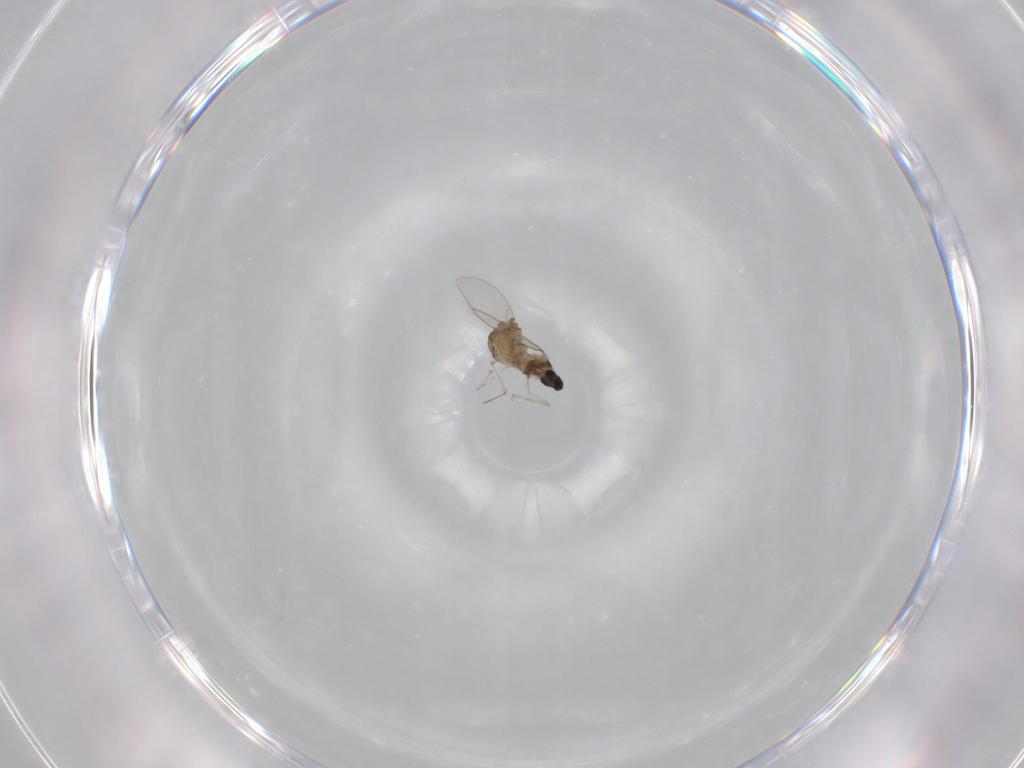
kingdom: Animalia
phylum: Arthropoda
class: Insecta
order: Diptera
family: Cecidomyiidae
